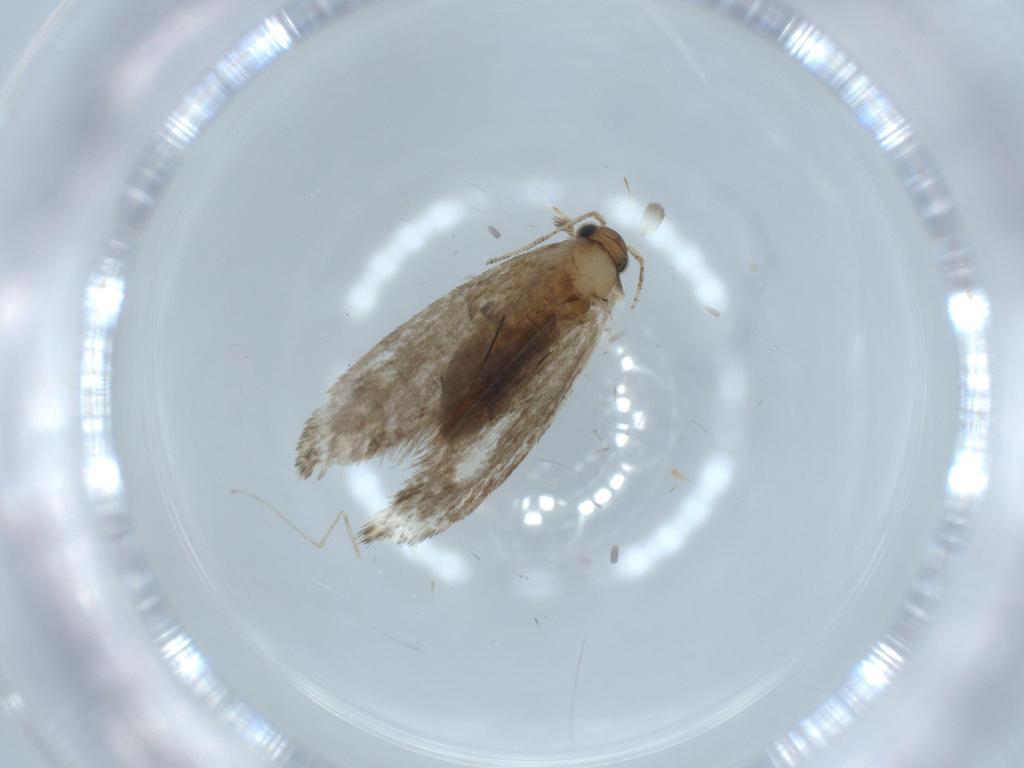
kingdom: Animalia
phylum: Arthropoda
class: Insecta
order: Lepidoptera
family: Tineidae
